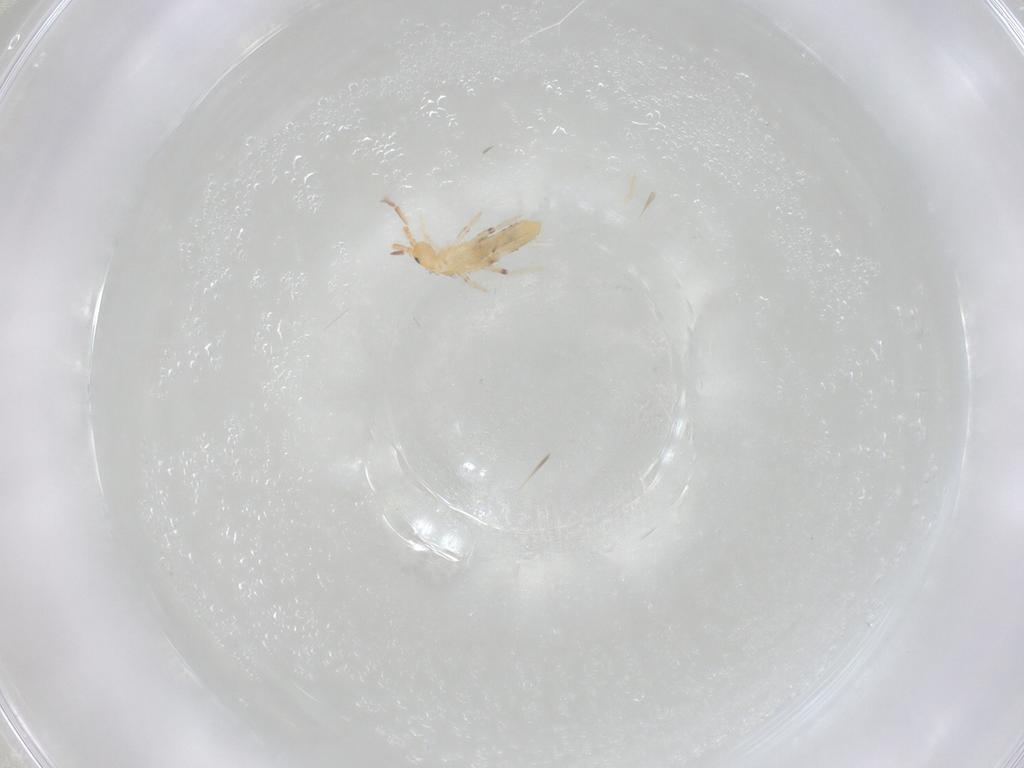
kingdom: Animalia
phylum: Arthropoda
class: Collembola
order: Entomobryomorpha
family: Entomobryidae
